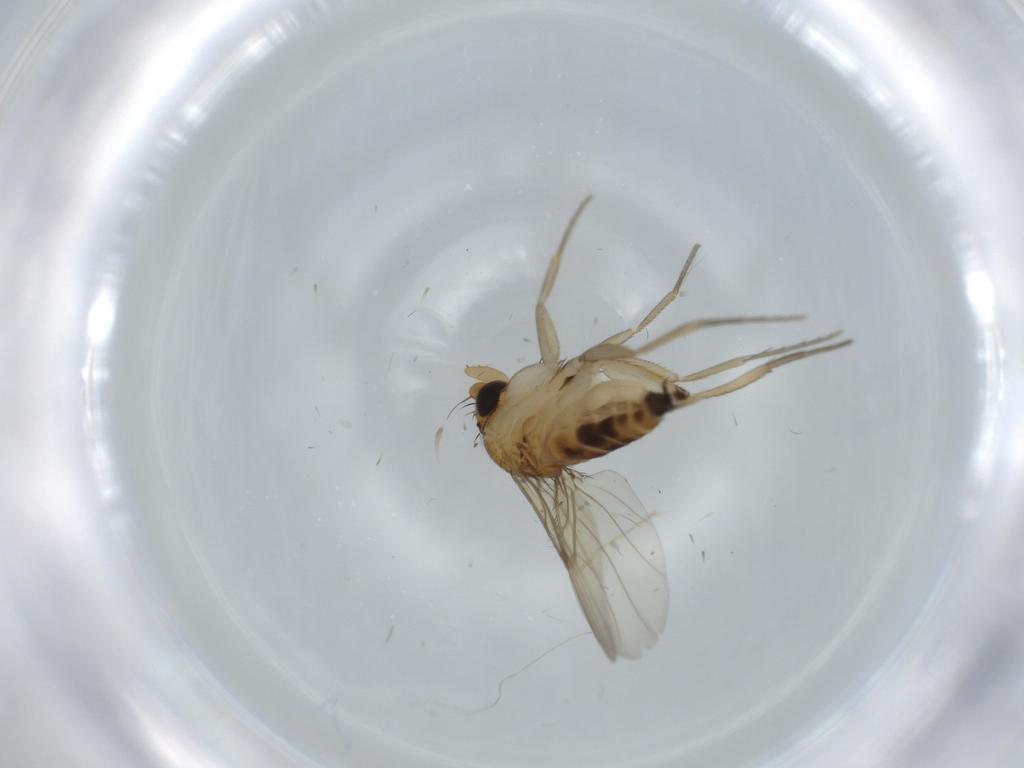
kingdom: Animalia
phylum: Arthropoda
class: Insecta
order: Diptera
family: Phoridae
